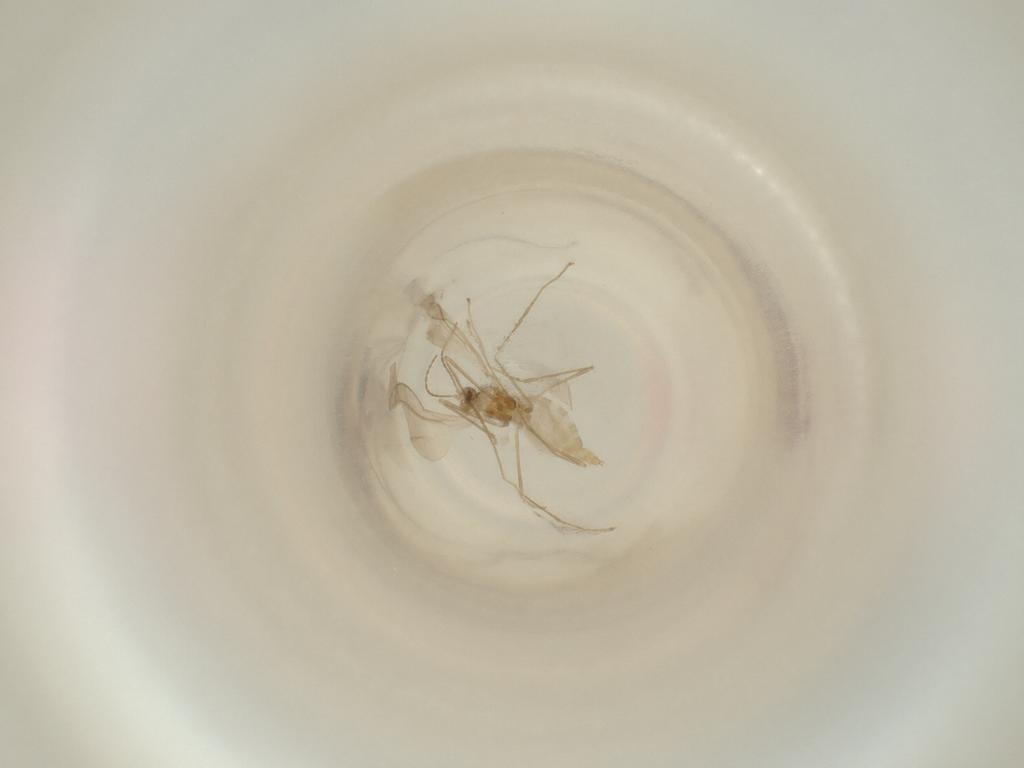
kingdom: Animalia
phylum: Arthropoda
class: Insecta
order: Diptera
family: Cecidomyiidae
